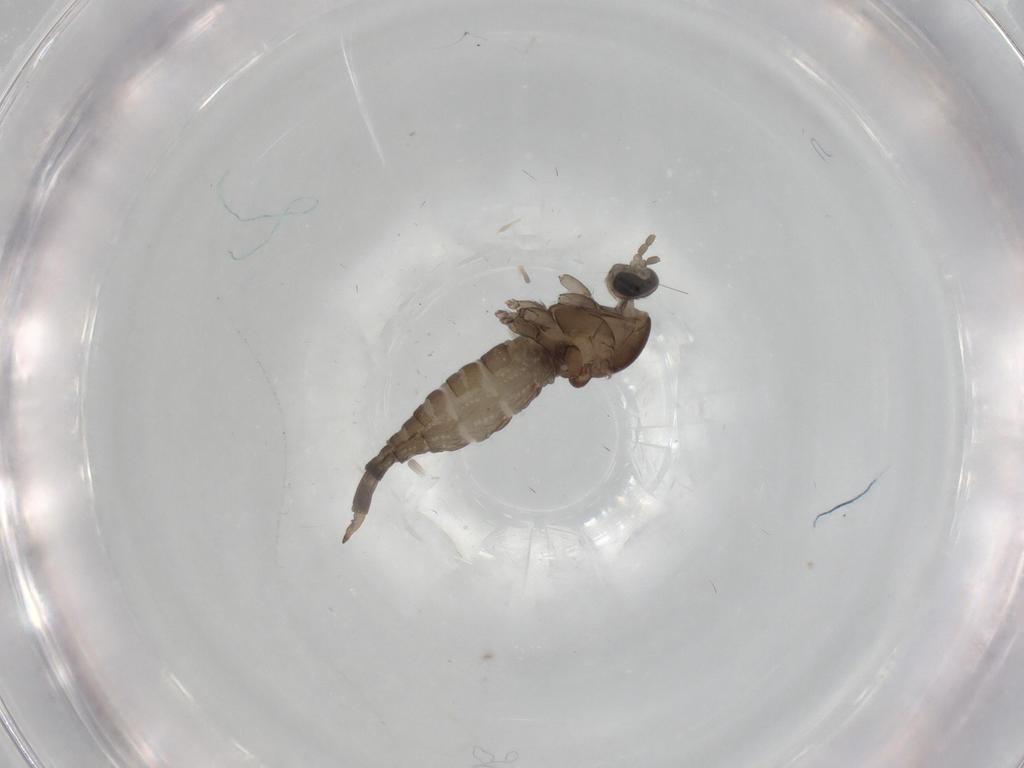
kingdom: Animalia
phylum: Arthropoda
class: Insecta
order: Diptera
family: Cecidomyiidae
